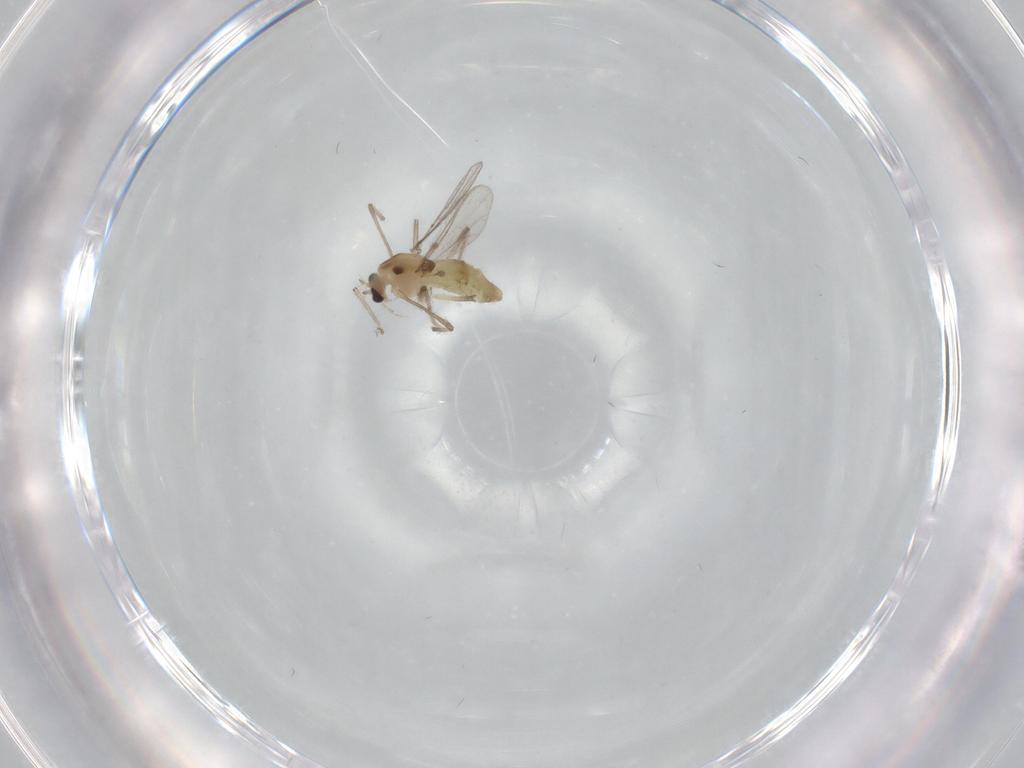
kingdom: Animalia
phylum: Arthropoda
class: Insecta
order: Diptera
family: Chironomidae
